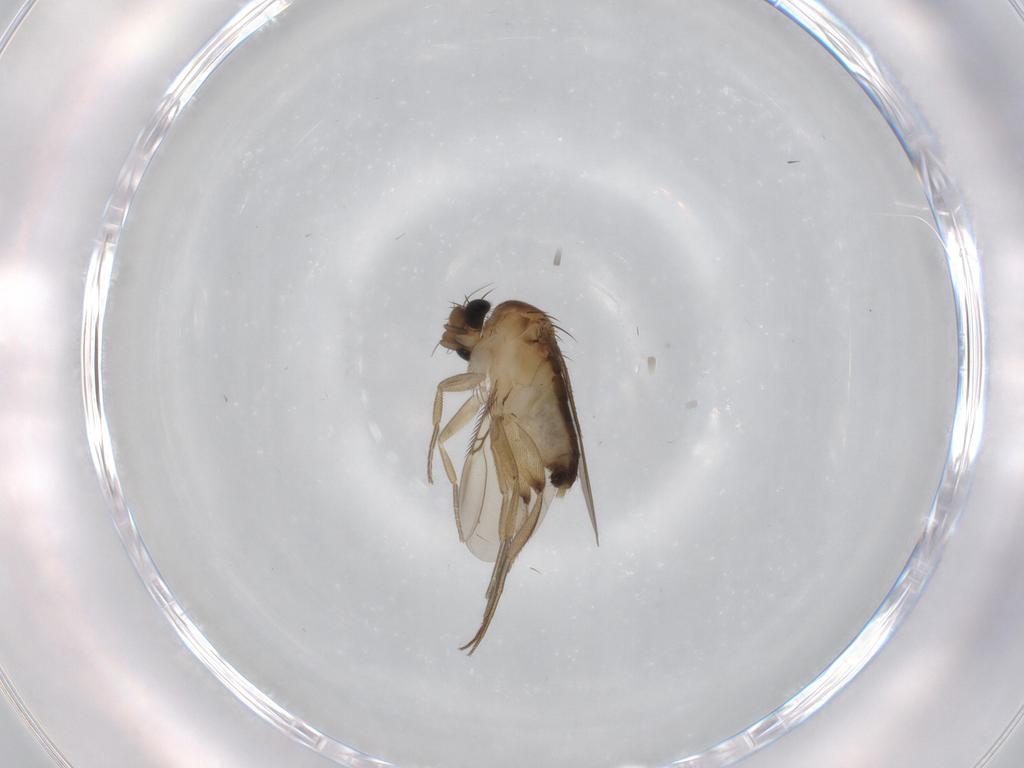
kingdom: Animalia
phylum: Arthropoda
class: Insecta
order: Diptera
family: Phoridae
